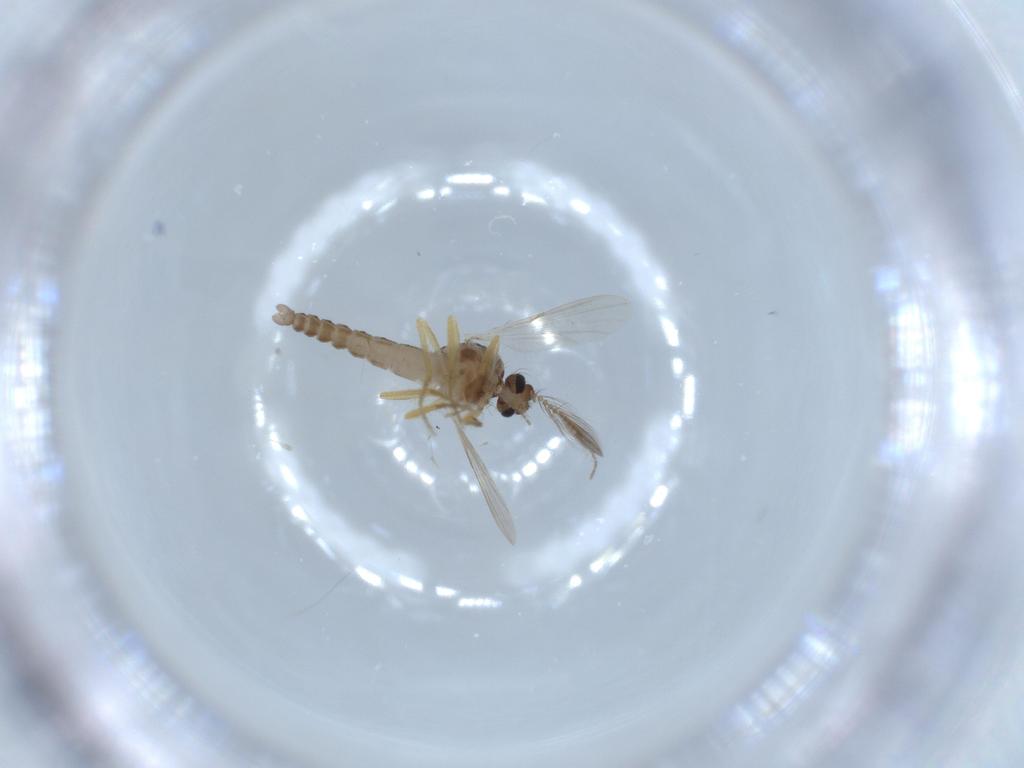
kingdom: Animalia
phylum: Arthropoda
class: Insecta
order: Diptera
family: Ceratopogonidae
